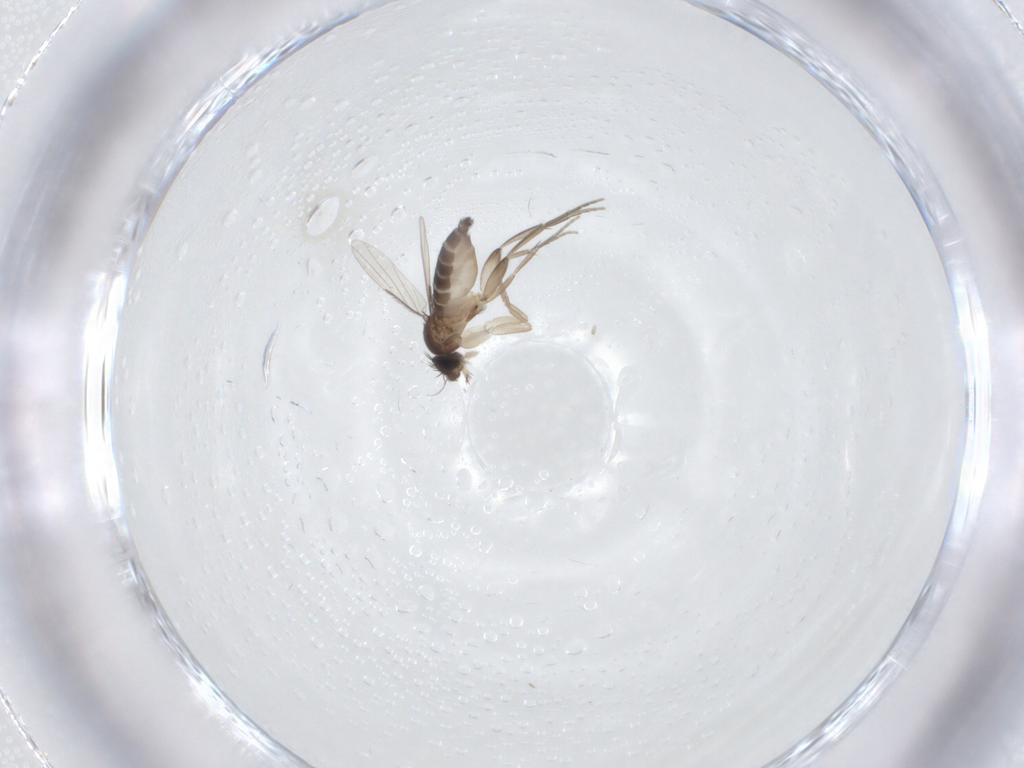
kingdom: Animalia
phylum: Arthropoda
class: Insecta
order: Diptera
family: Phoridae
